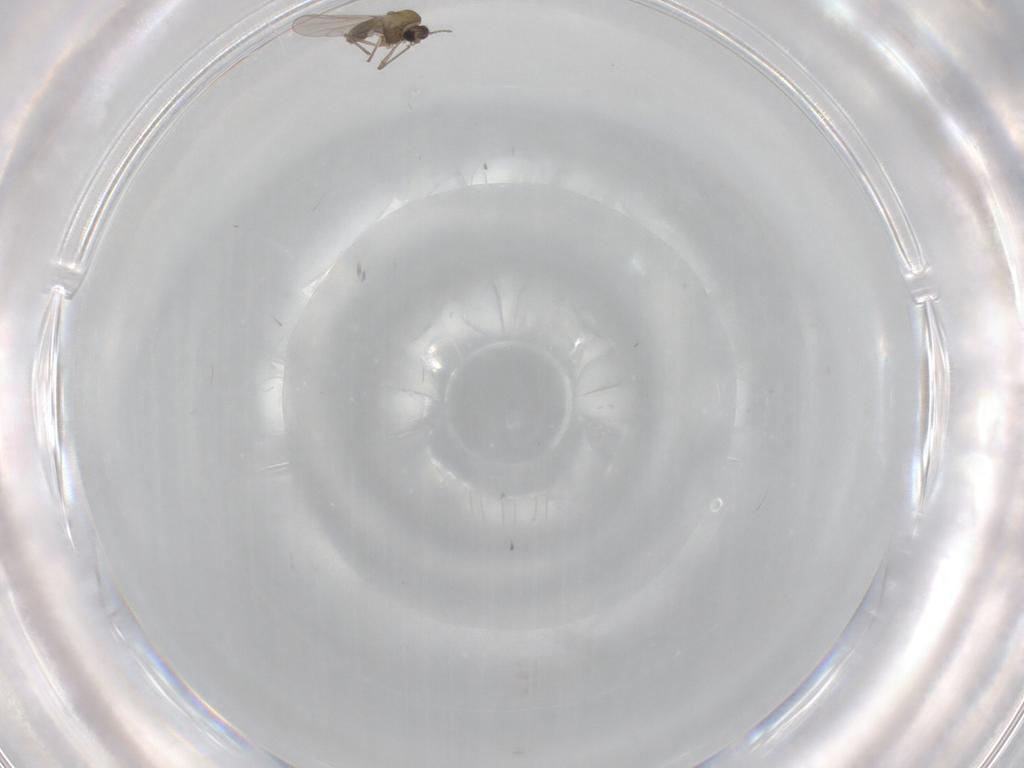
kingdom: Animalia
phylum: Arthropoda
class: Insecta
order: Diptera
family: Chironomidae
